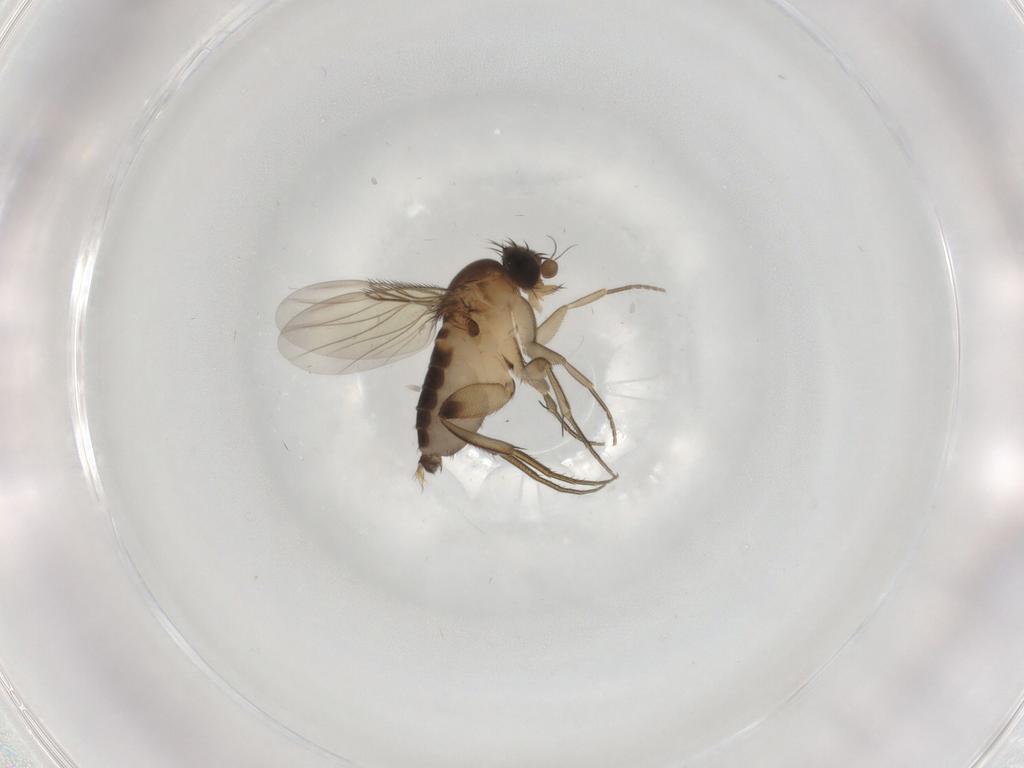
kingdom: Animalia
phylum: Arthropoda
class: Insecta
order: Diptera
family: Phoridae
